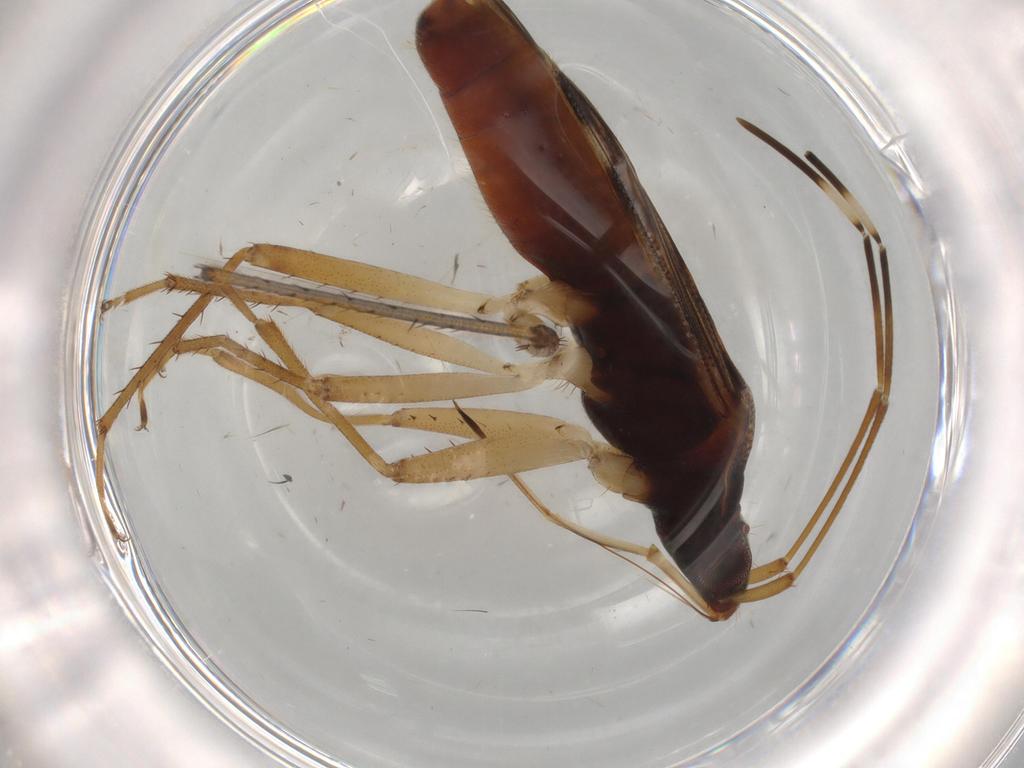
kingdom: Animalia
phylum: Arthropoda
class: Insecta
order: Hemiptera
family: Rhyparochromidae
